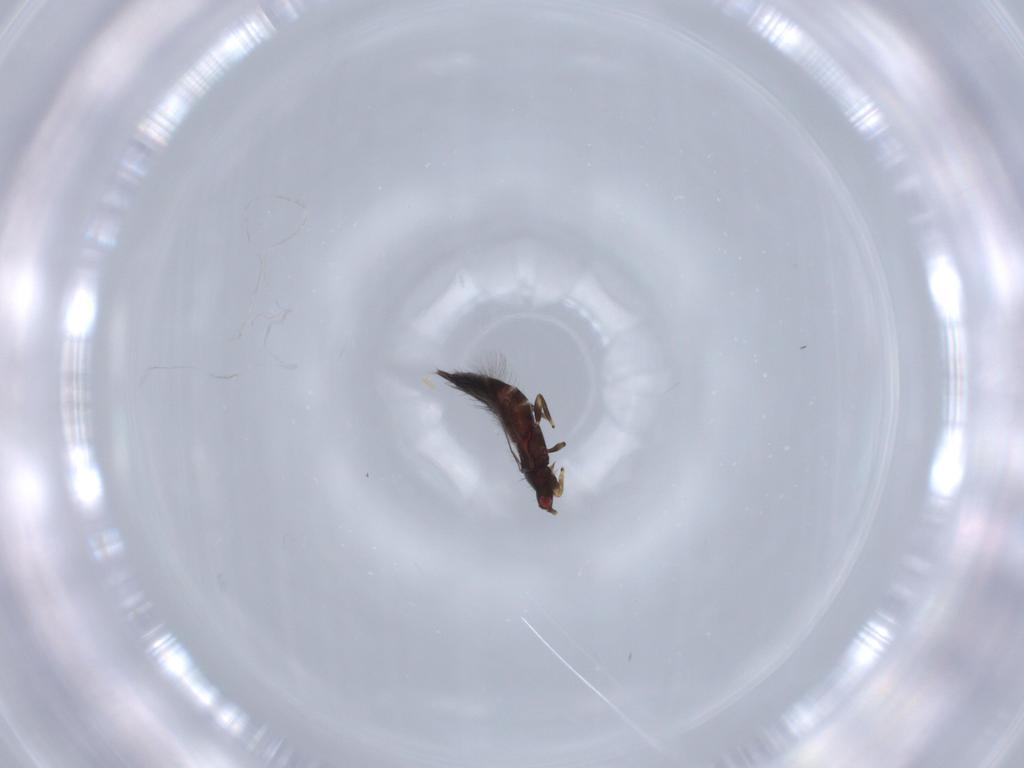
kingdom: Animalia
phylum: Arthropoda
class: Insecta
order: Thysanoptera
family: Phlaeothripidae
